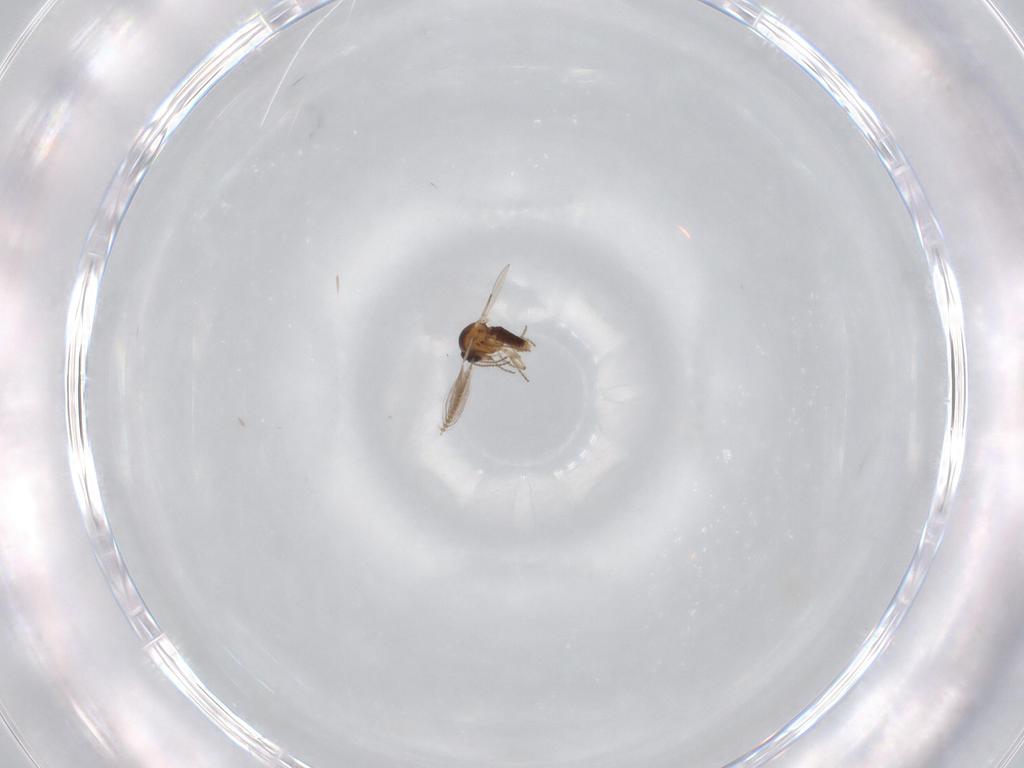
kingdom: Animalia
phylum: Arthropoda
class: Insecta
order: Diptera
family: Ceratopogonidae
